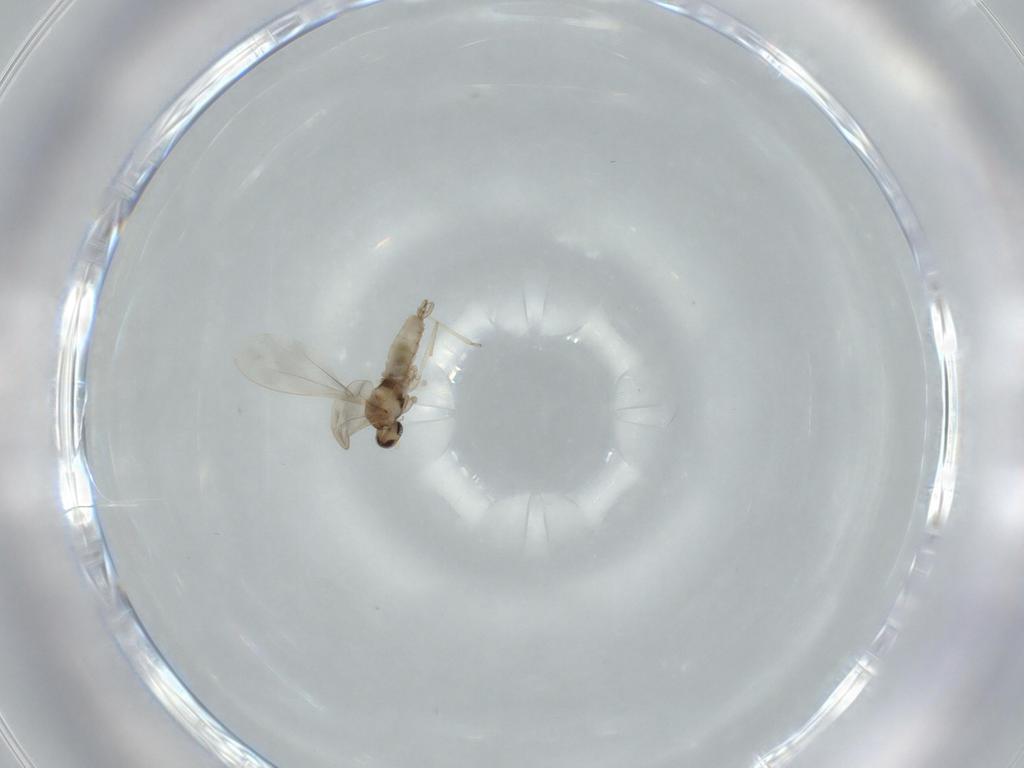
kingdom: Animalia
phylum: Arthropoda
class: Insecta
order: Diptera
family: Cecidomyiidae
